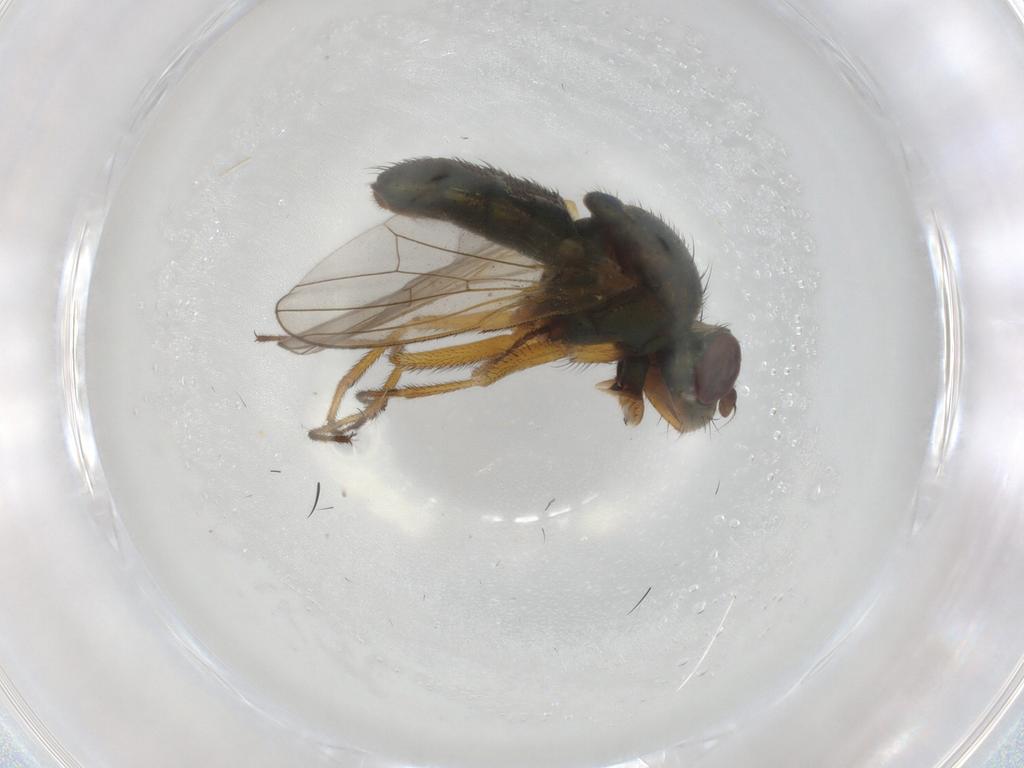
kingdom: Animalia
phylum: Arthropoda
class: Insecta
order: Diptera
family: Ephydridae
